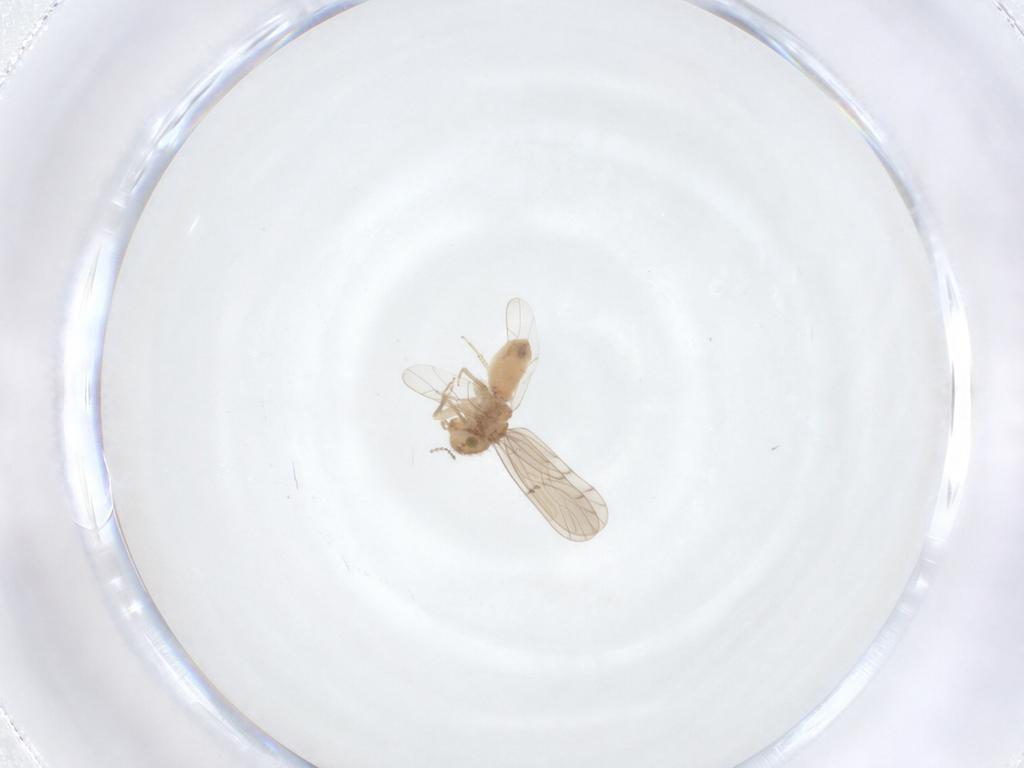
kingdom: Animalia
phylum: Arthropoda
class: Insecta
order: Psocodea
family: Ectopsocidae
